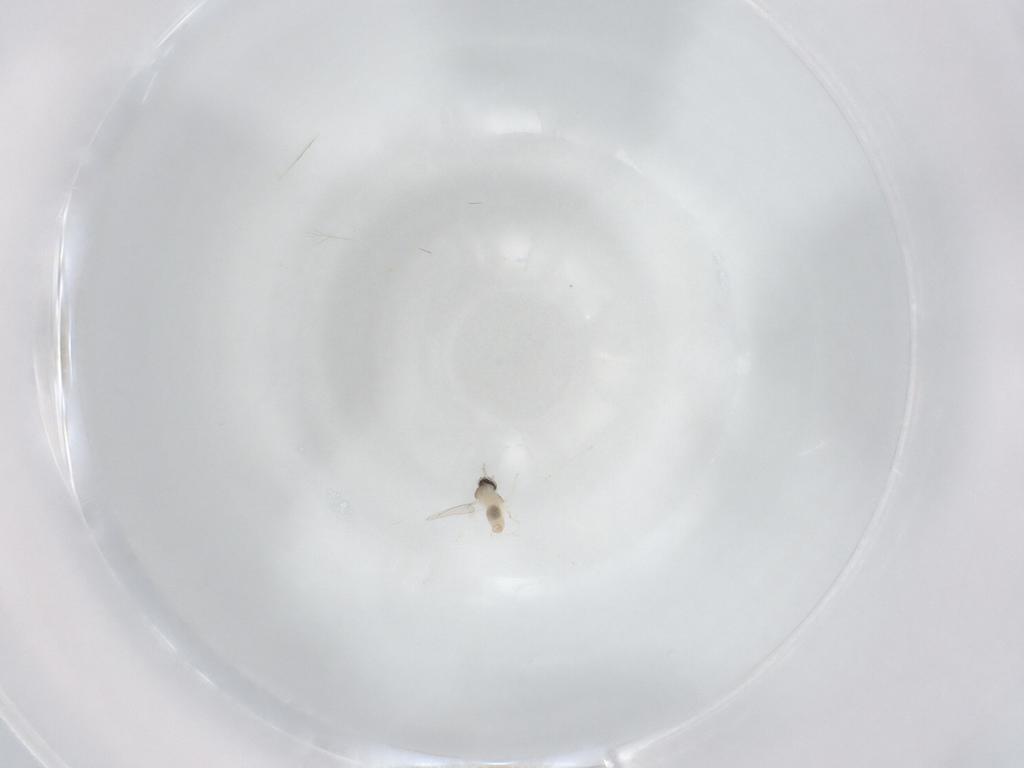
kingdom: Animalia
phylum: Arthropoda
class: Insecta
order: Diptera
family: Cecidomyiidae
